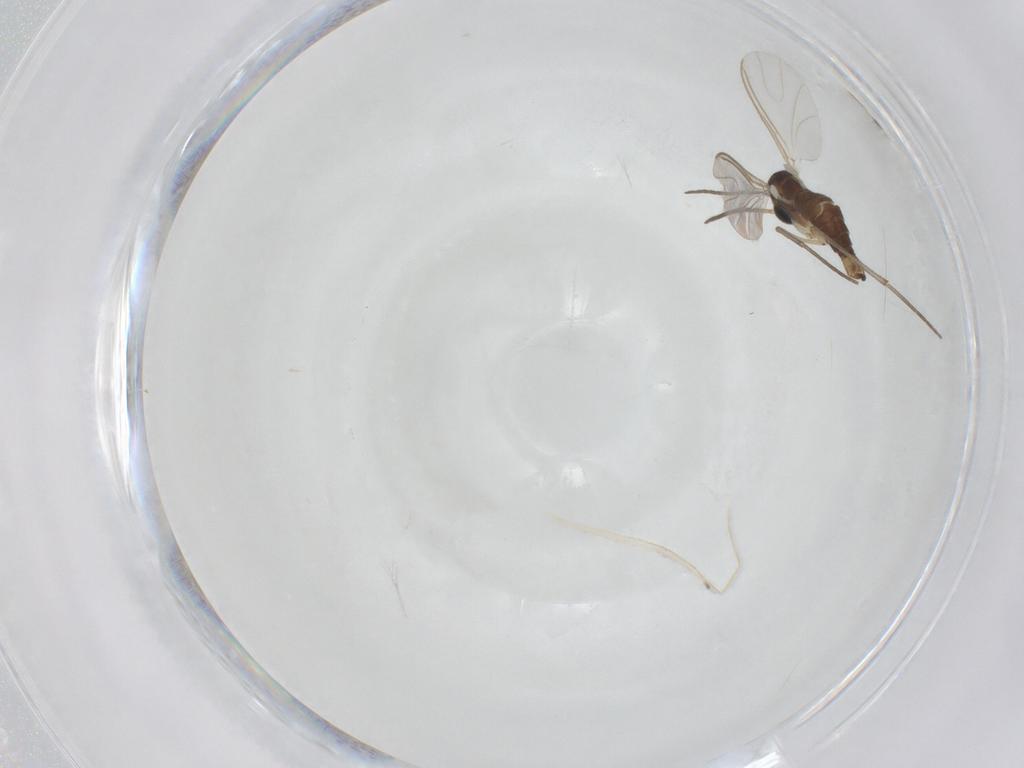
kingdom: Animalia
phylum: Arthropoda
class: Insecta
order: Diptera
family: Sciaridae
